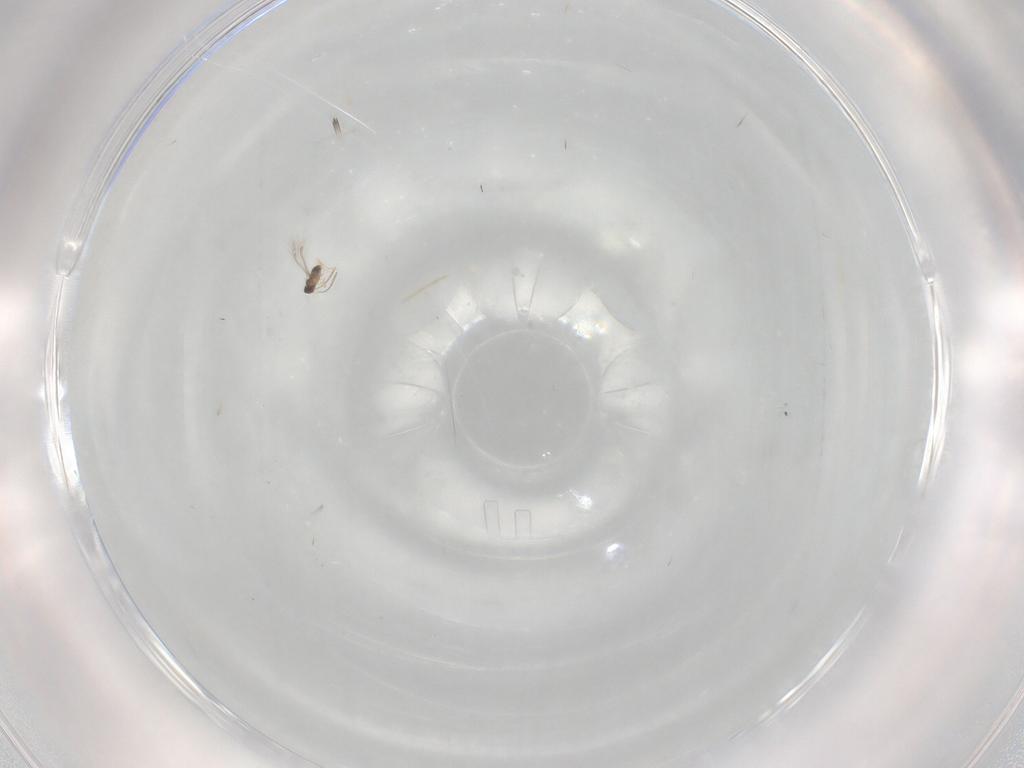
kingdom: Animalia
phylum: Arthropoda
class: Insecta
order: Hymenoptera
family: Mymaridae
